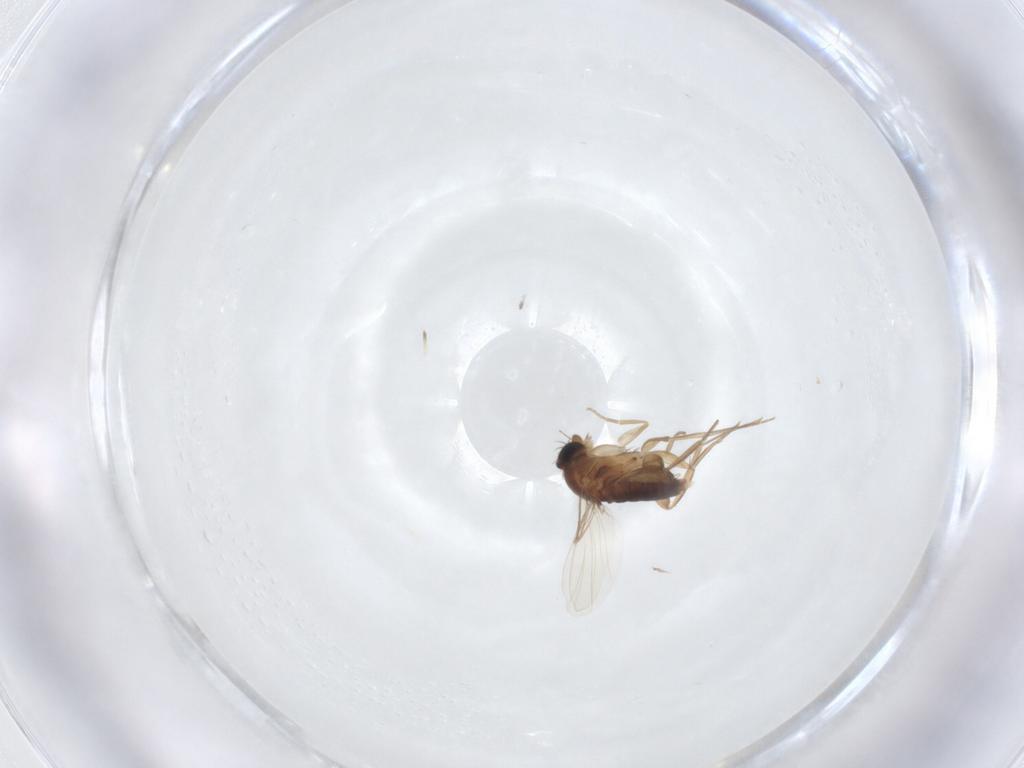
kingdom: Animalia
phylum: Arthropoda
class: Insecta
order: Diptera
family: Phoridae
